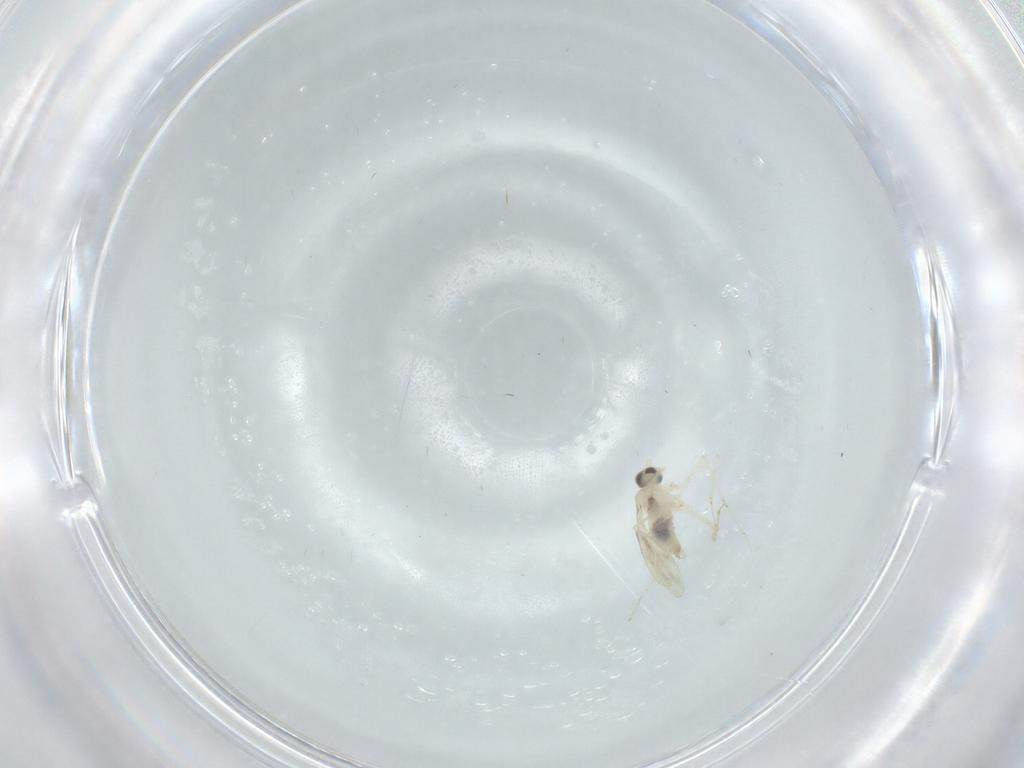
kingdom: Animalia
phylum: Arthropoda
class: Insecta
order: Diptera
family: Cecidomyiidae
